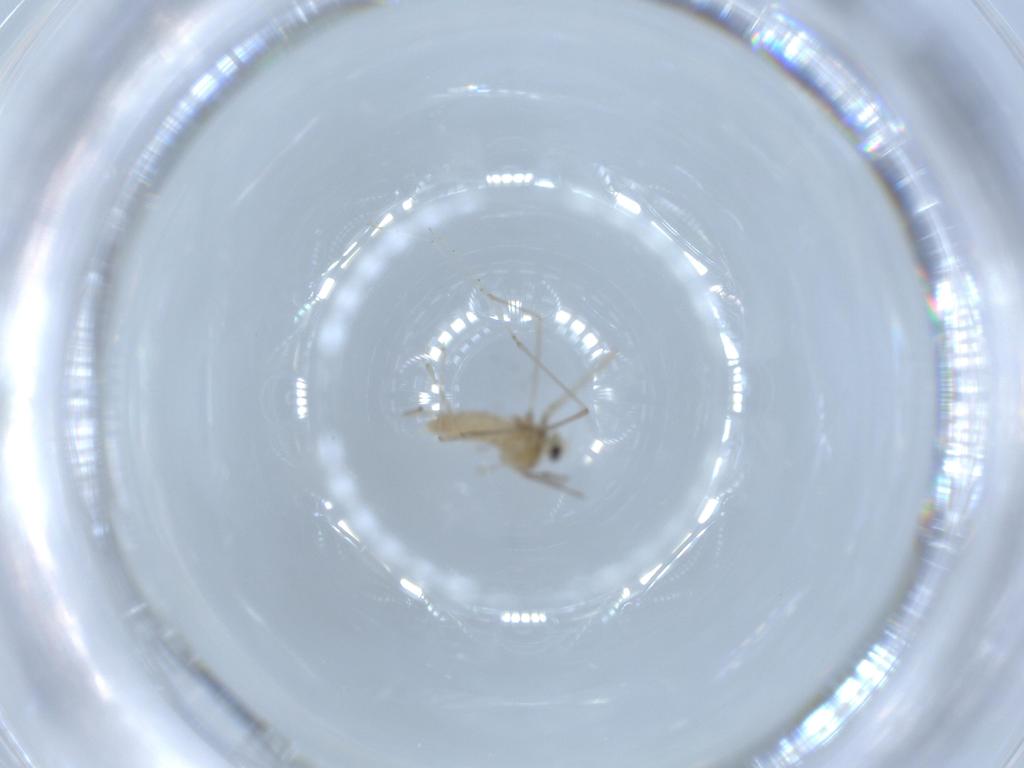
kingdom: Animalia
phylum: Arthropoda
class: Insecta
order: Diptera
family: Cecidomyiidae
